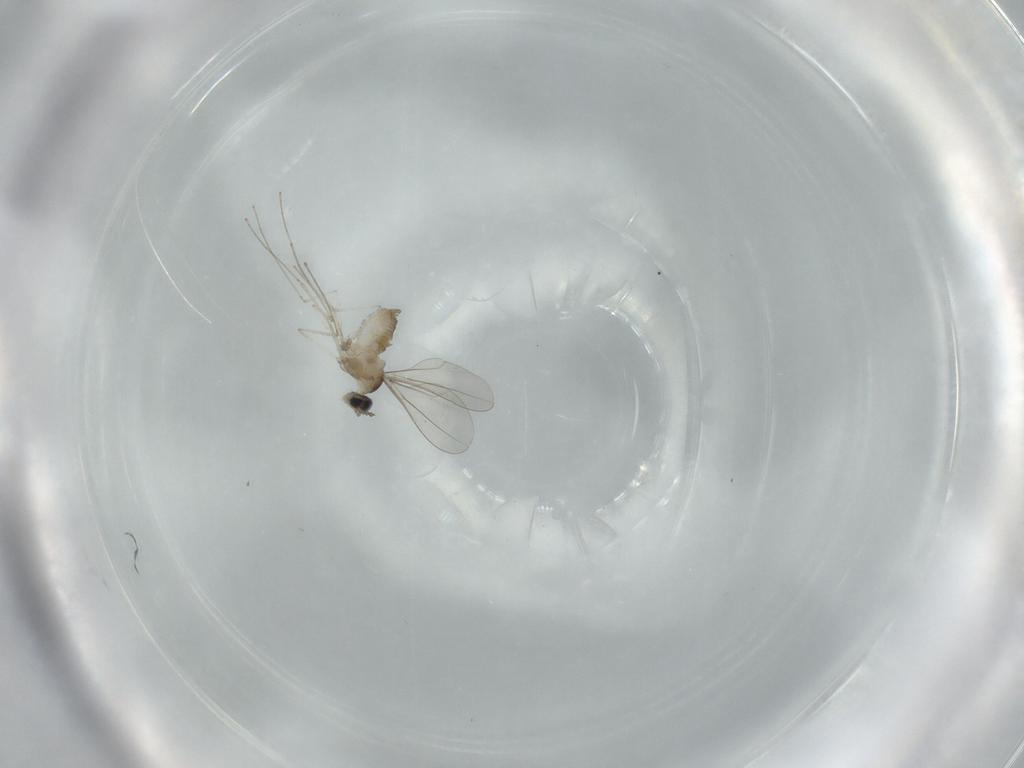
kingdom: Animalia
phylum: Arthropoda
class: Insecta
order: Diptera
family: Cecidomyiidae
